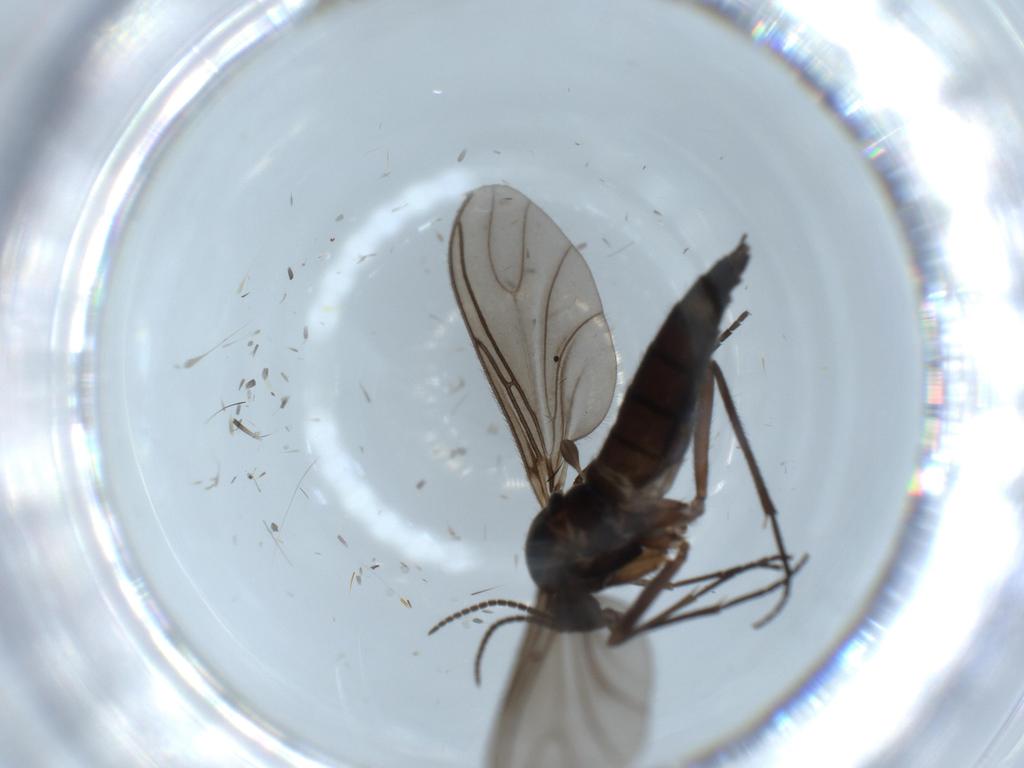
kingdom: Animalia
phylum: Arthropoda
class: Insecta
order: Diptera
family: Sciaridae
